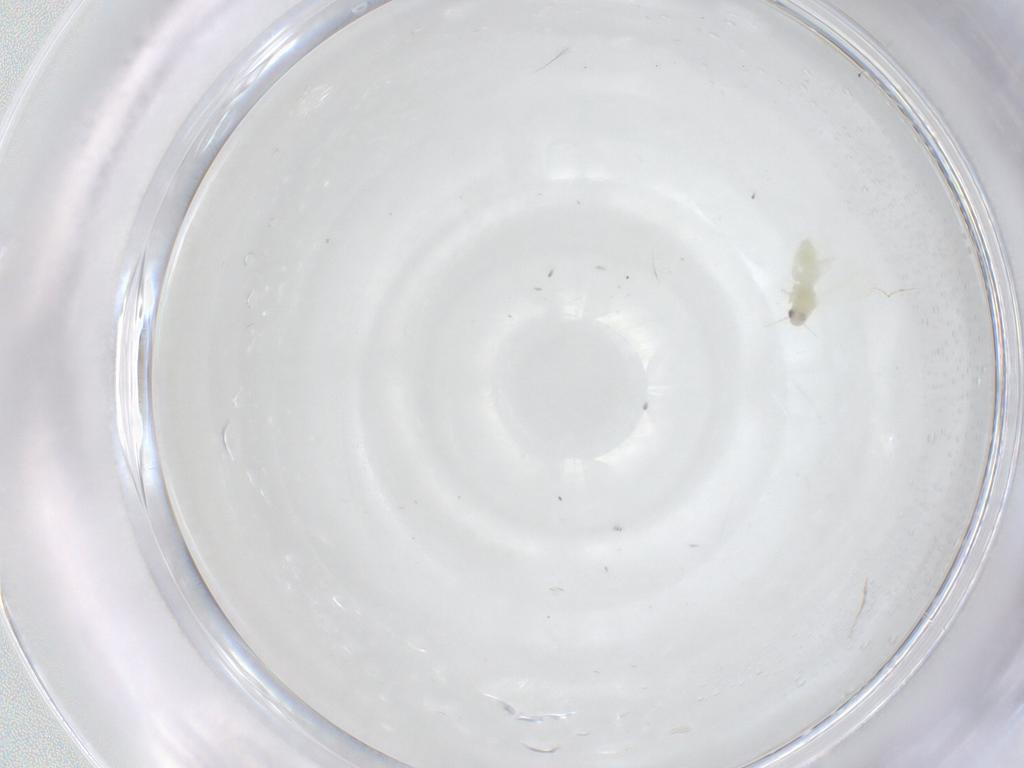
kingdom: Animalia
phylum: Arthropoda
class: Insecta
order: Hemiptera
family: Aleyrodidae
